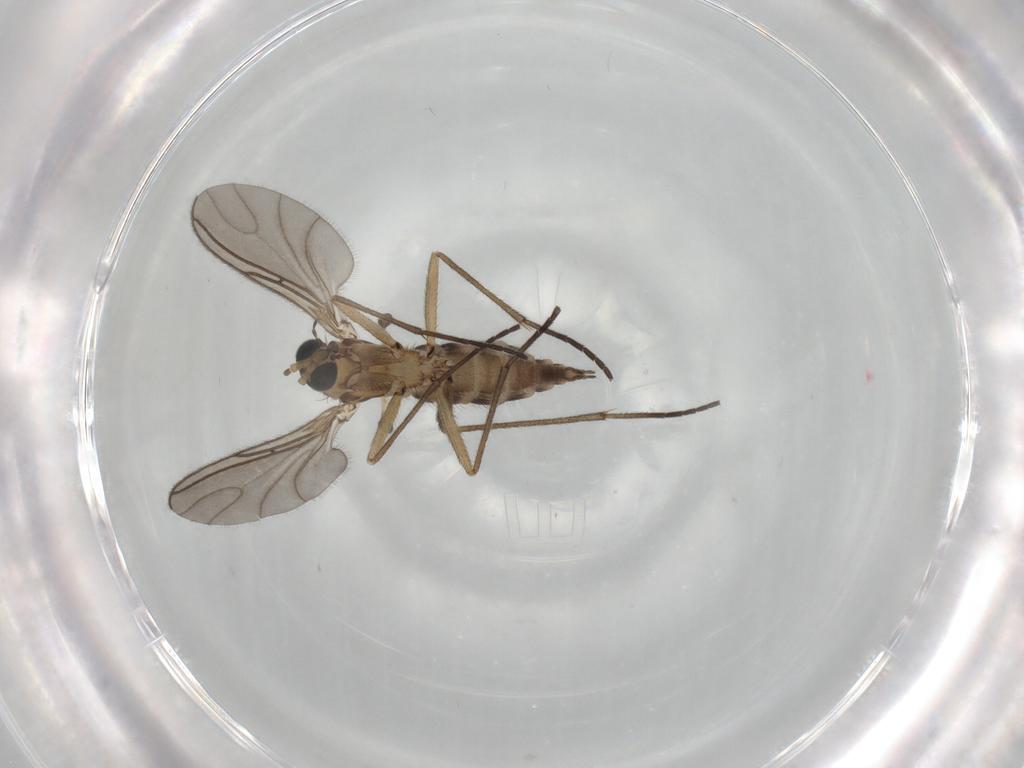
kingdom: Animalia
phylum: Arthropoda
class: Insecta
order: Diptera
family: Sciaridae
